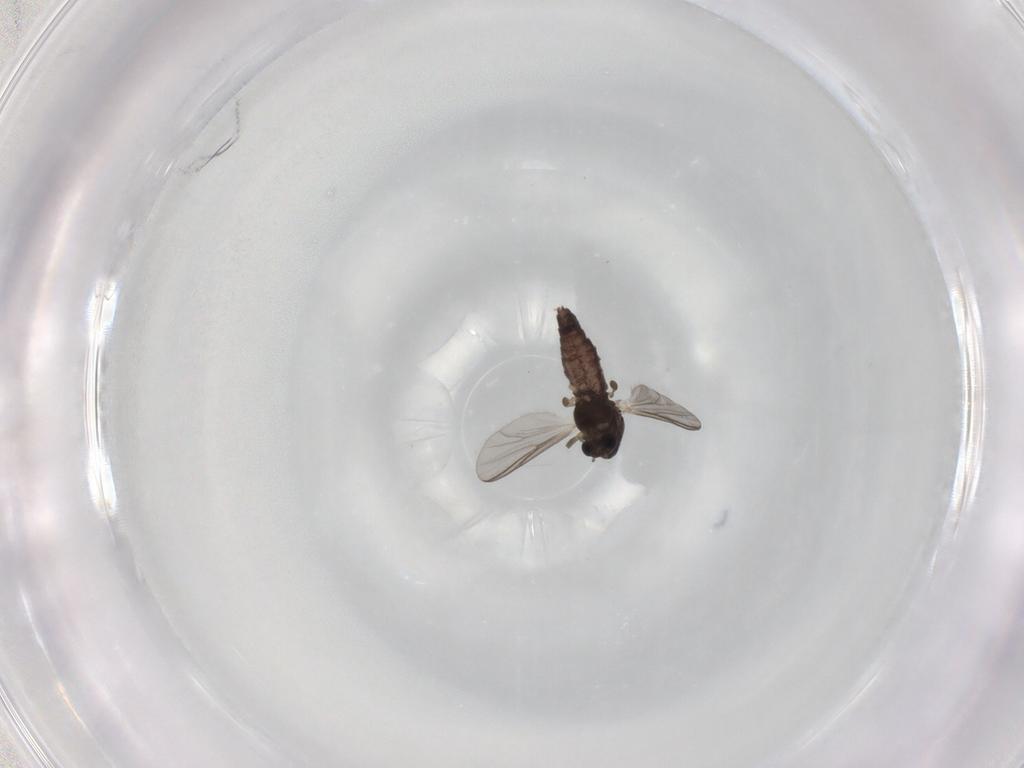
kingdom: Animalia
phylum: Arthropoda
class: Insecta
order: Diptera
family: Chironomidae
